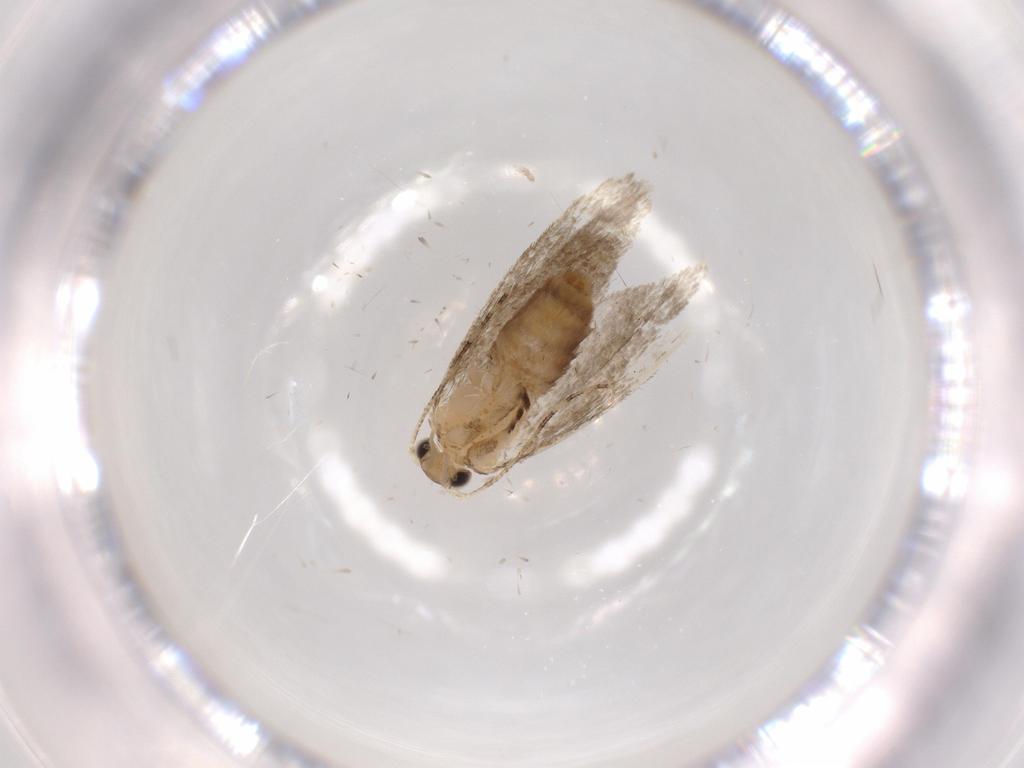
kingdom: Animalia
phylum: Arthropoda
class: Insecta
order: Lepidoptera
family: Tineidae
